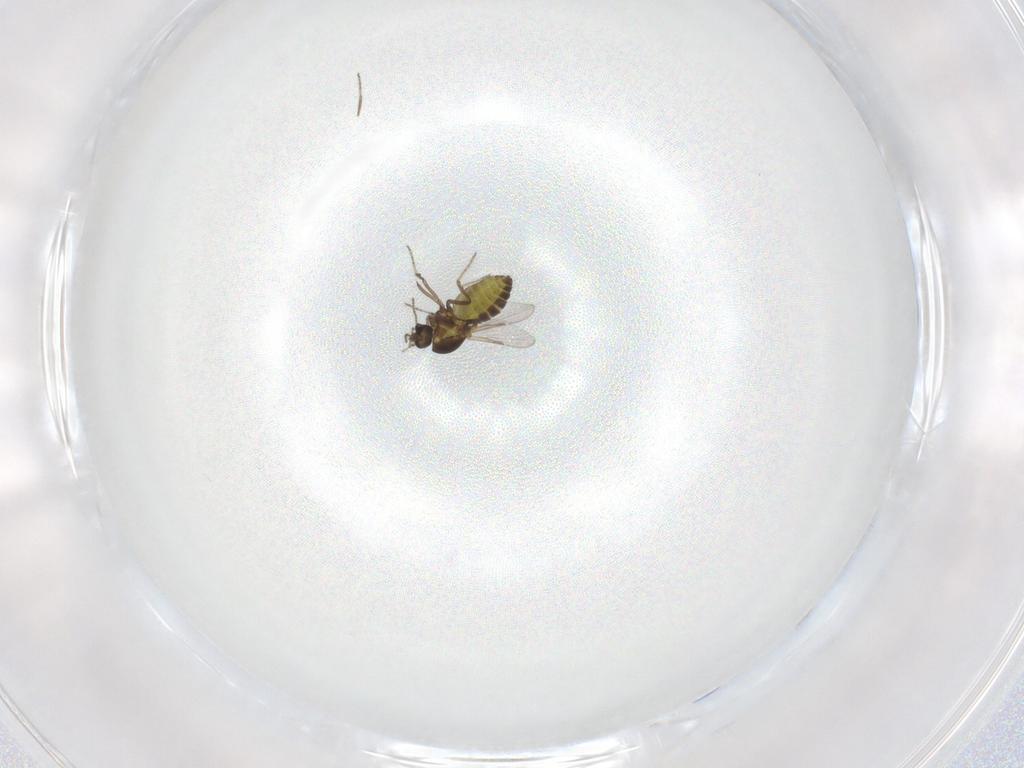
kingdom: Animalia
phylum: Arthropoda
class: Insecta
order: Diptera
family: Chironomidae
